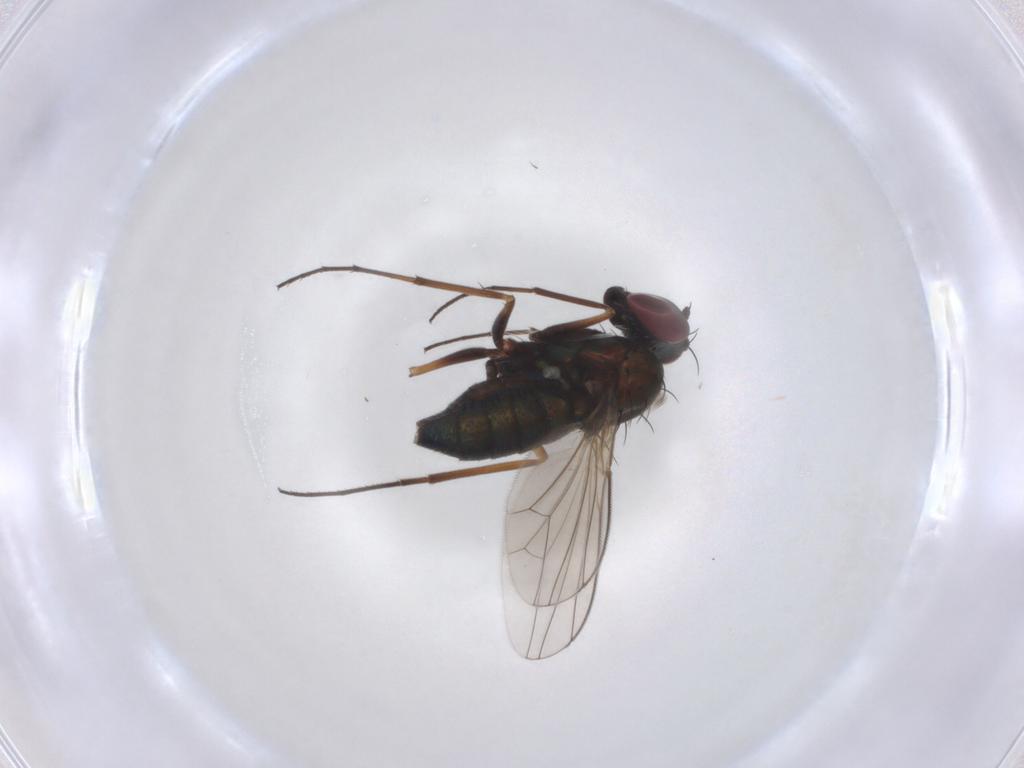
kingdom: Animalia
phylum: Arthropoda
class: Insecta
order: Diptera
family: Dolichopodidae
